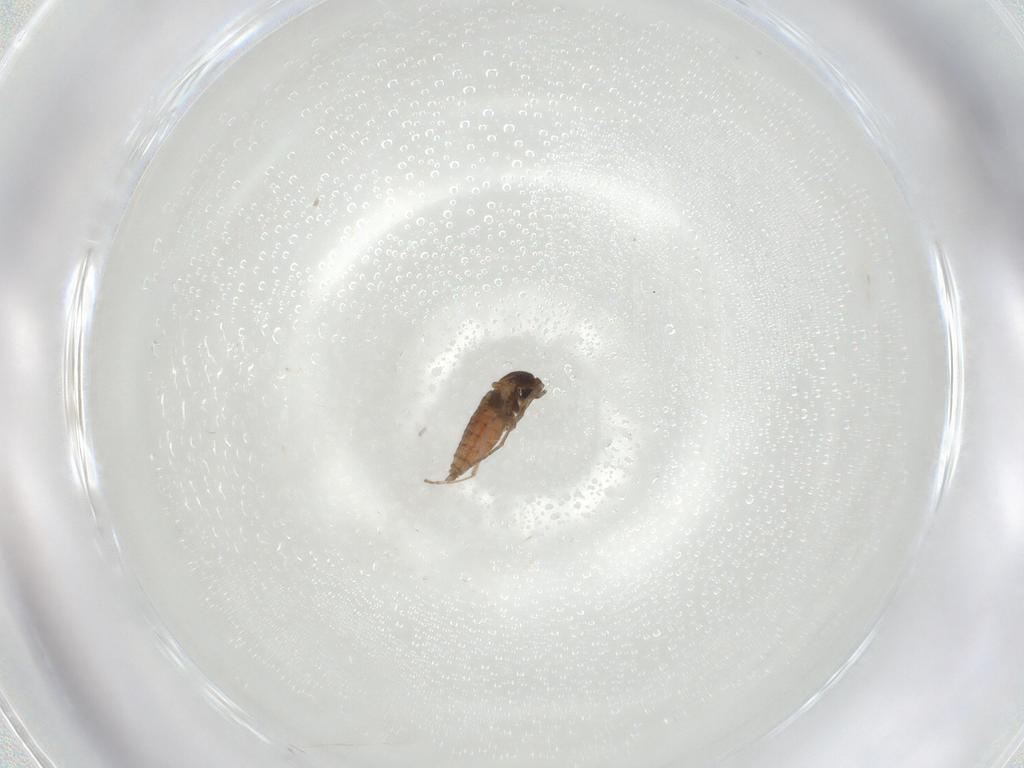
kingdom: Animalia
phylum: Arthropoda
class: Insecta
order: Diptera
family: Cecidomyiidae
